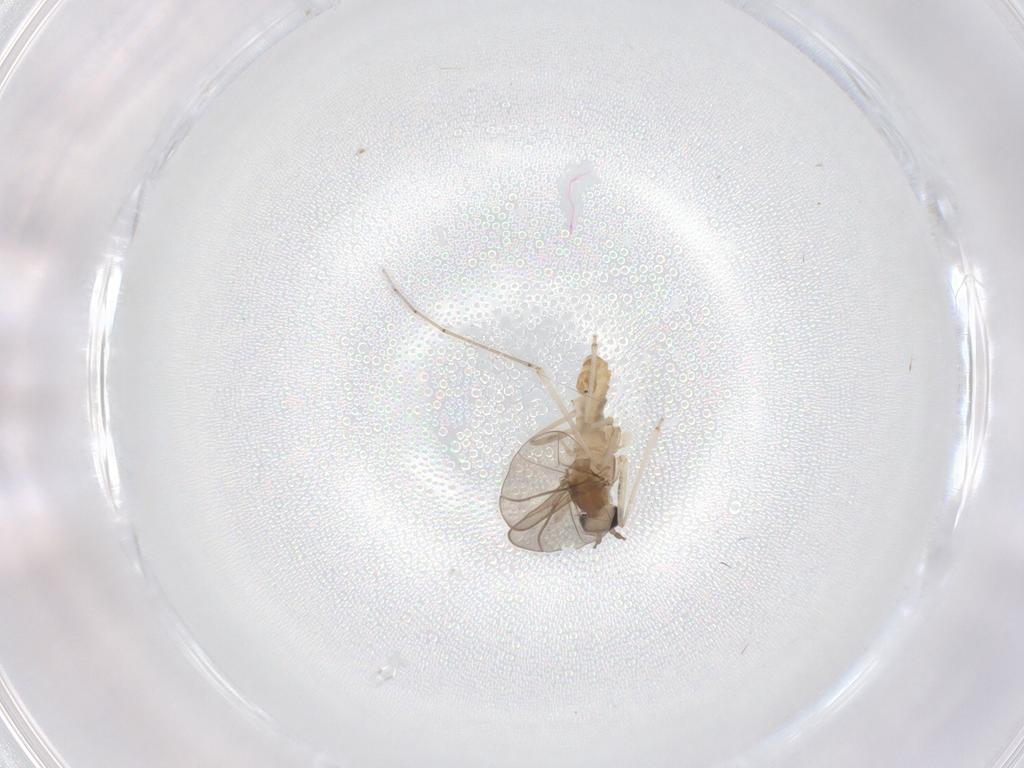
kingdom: Animalia
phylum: Arthropoda
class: Insecta
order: Diptera
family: Cecidomyiidae
